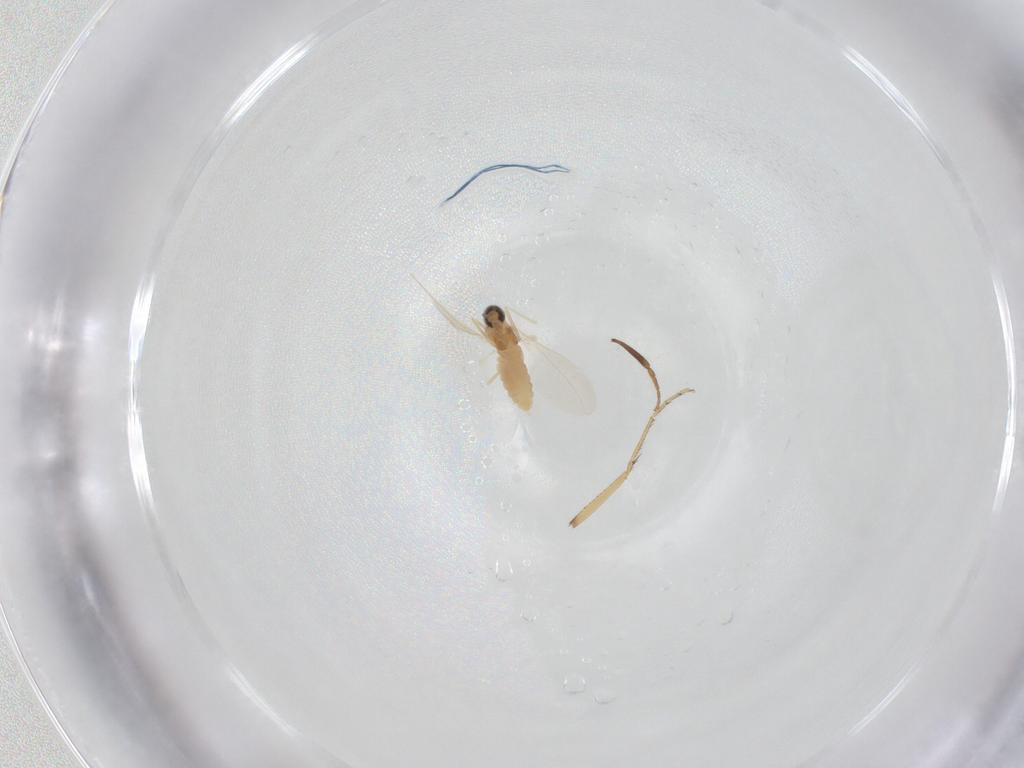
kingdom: Animalia
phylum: Arthropoda
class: Insecta
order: Diptera
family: Cecidomyiidae
